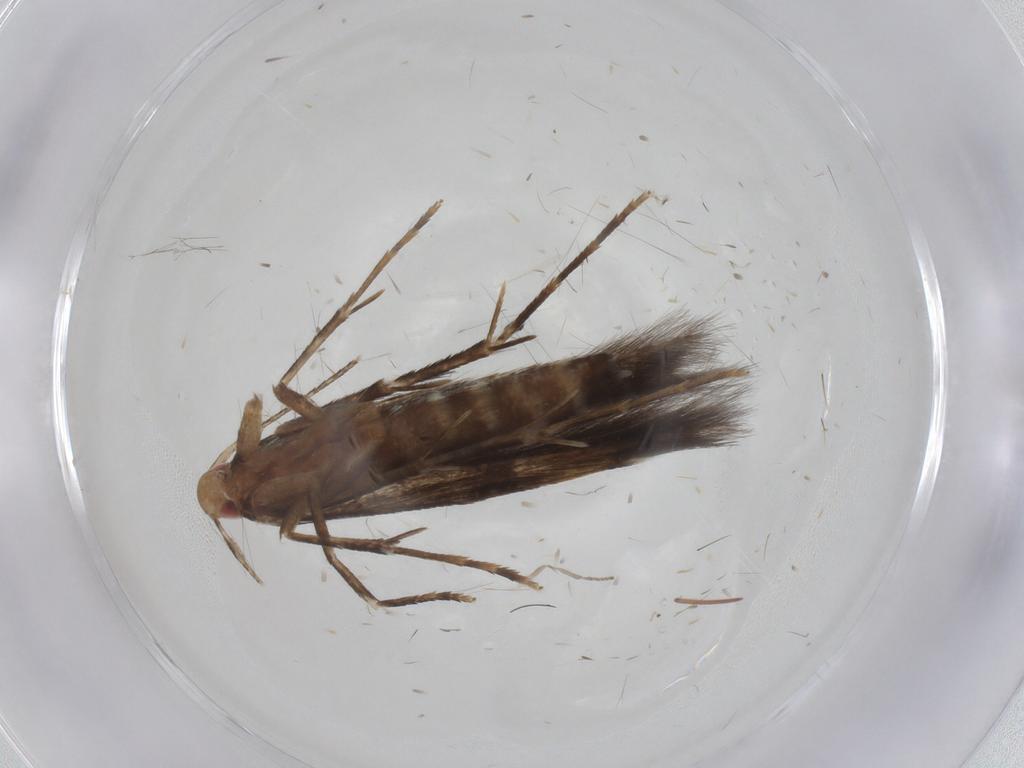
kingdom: Animalia
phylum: Arthropoda
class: Insecta
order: Lepidoptera
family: Cosmopterigidae
